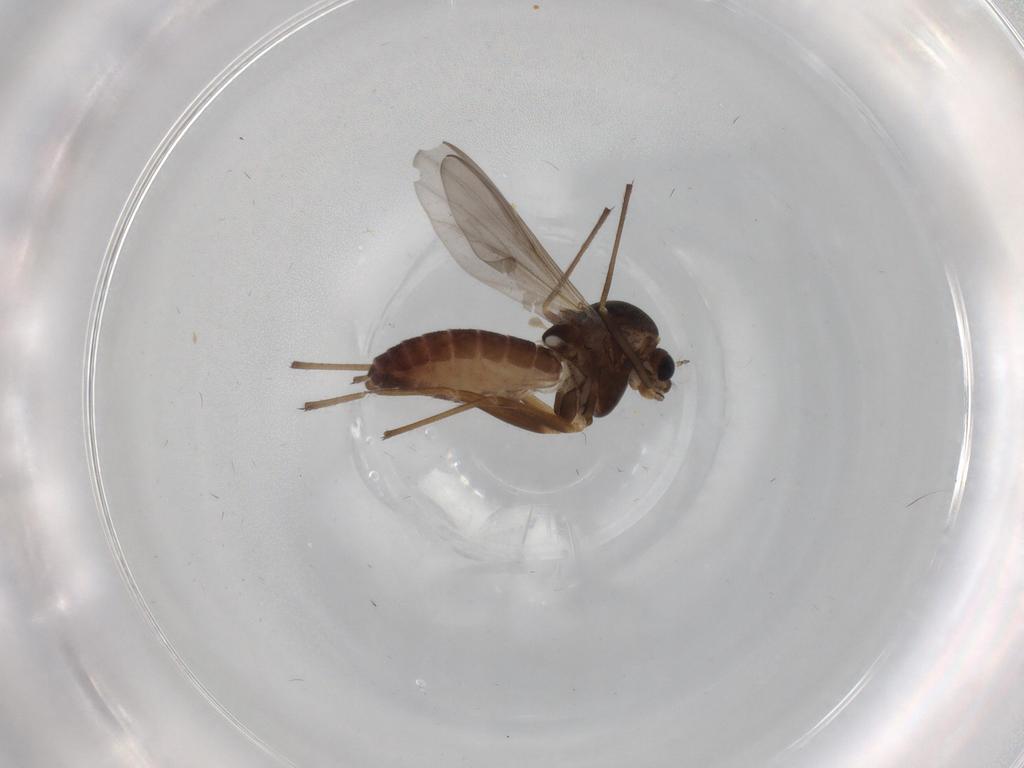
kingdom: Animalia
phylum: Arthropoda
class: Insecta
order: Diptera
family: Chironomidae
